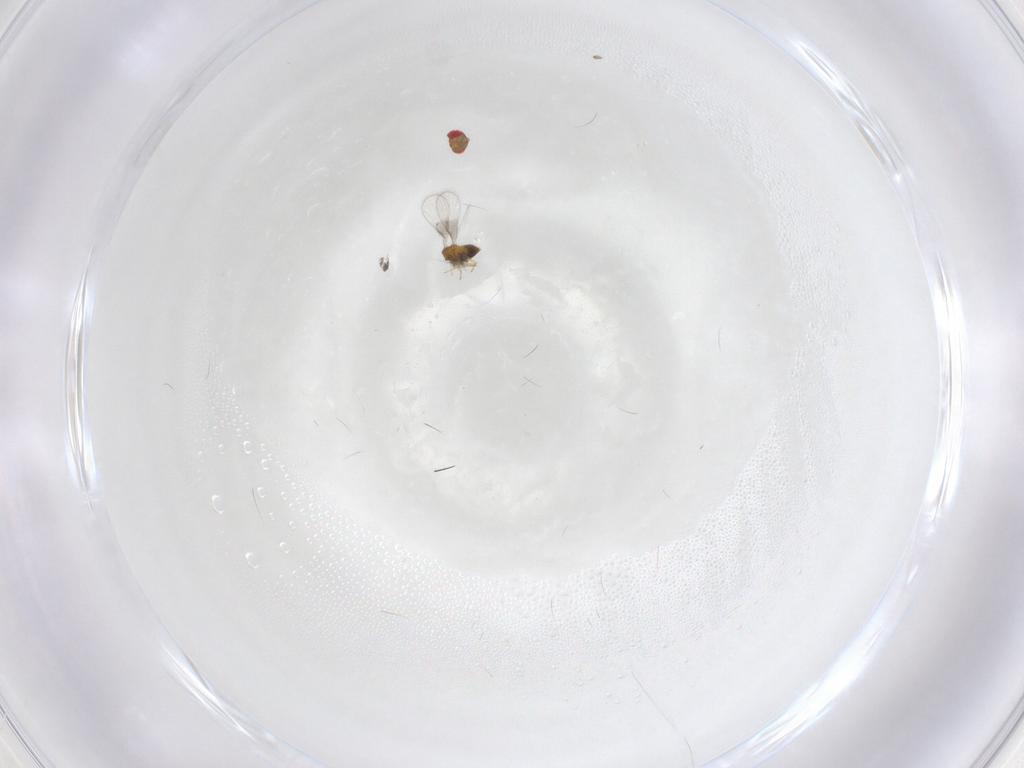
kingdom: Animalia
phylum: Arthropoda
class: Insecta
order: Hymenoptera
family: Trichogrammatidae
